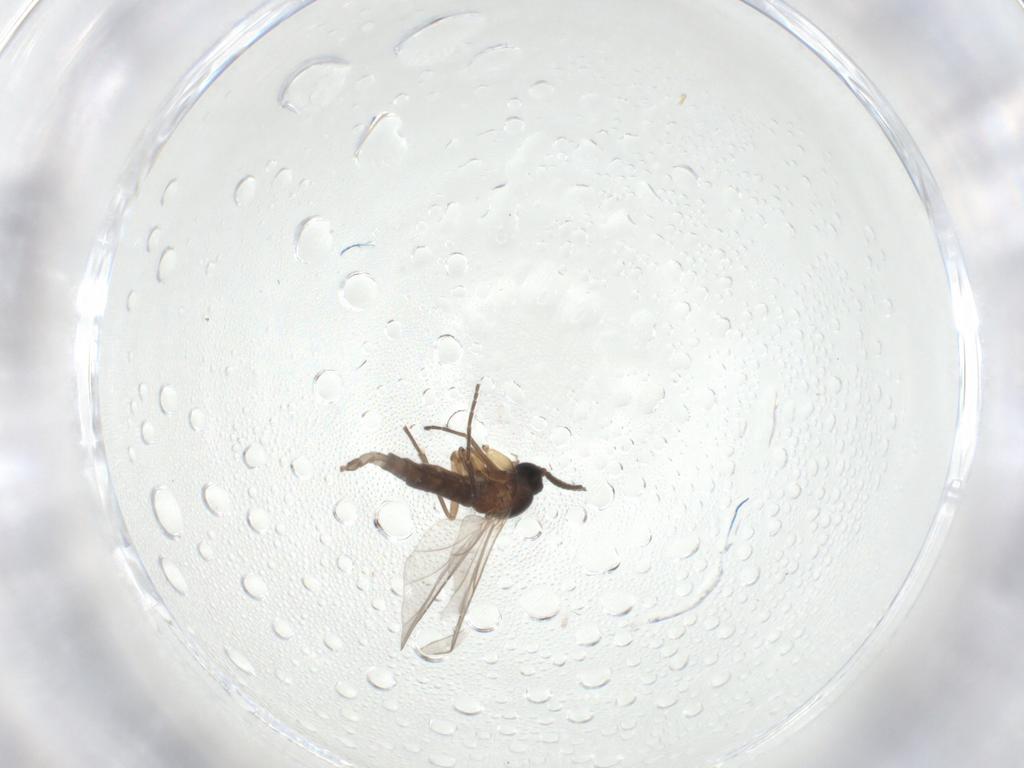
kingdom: Animalia
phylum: Arthropoda
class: Insecta
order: Diptera
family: Sciaridae
